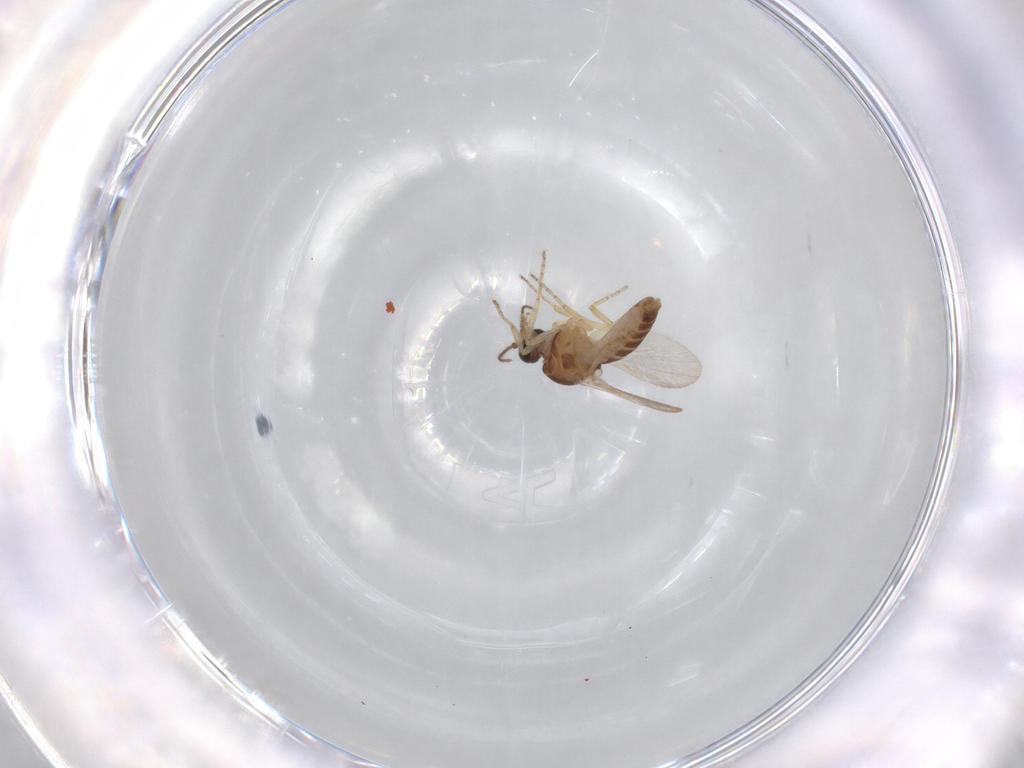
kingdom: Animalia
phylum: Arthropoda
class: Insecta
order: Diptera
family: Ceratopogonidae
